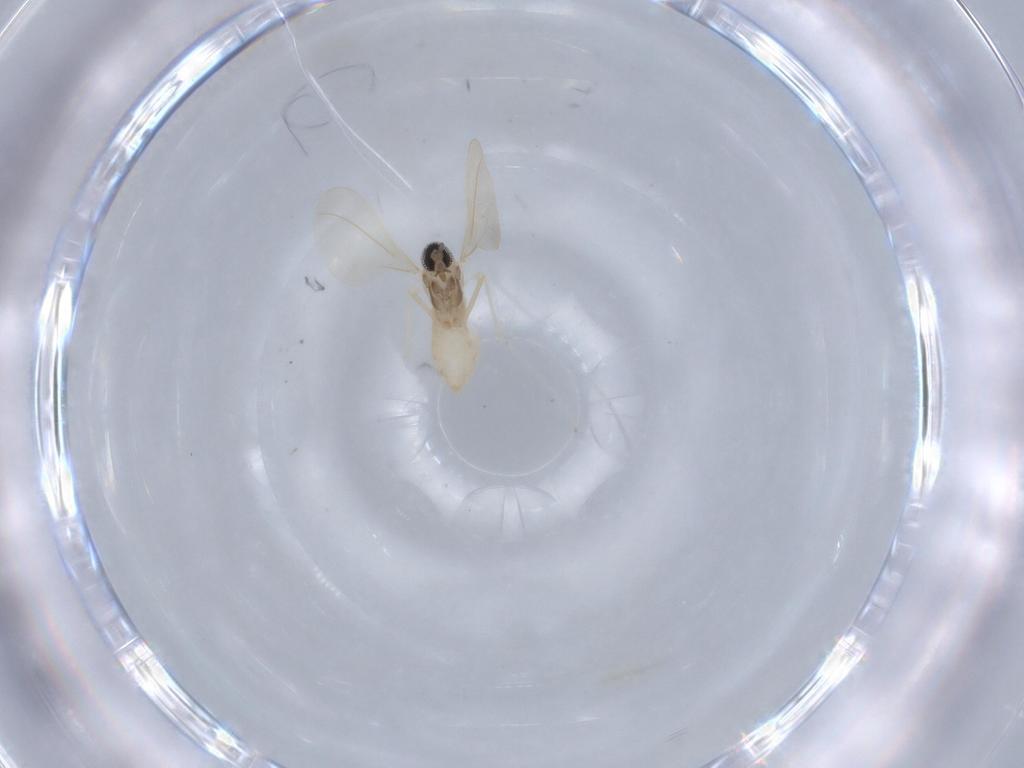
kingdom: Animalia
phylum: Arthropoda
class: Insecta
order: Diptera
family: Cecidomyiidae
